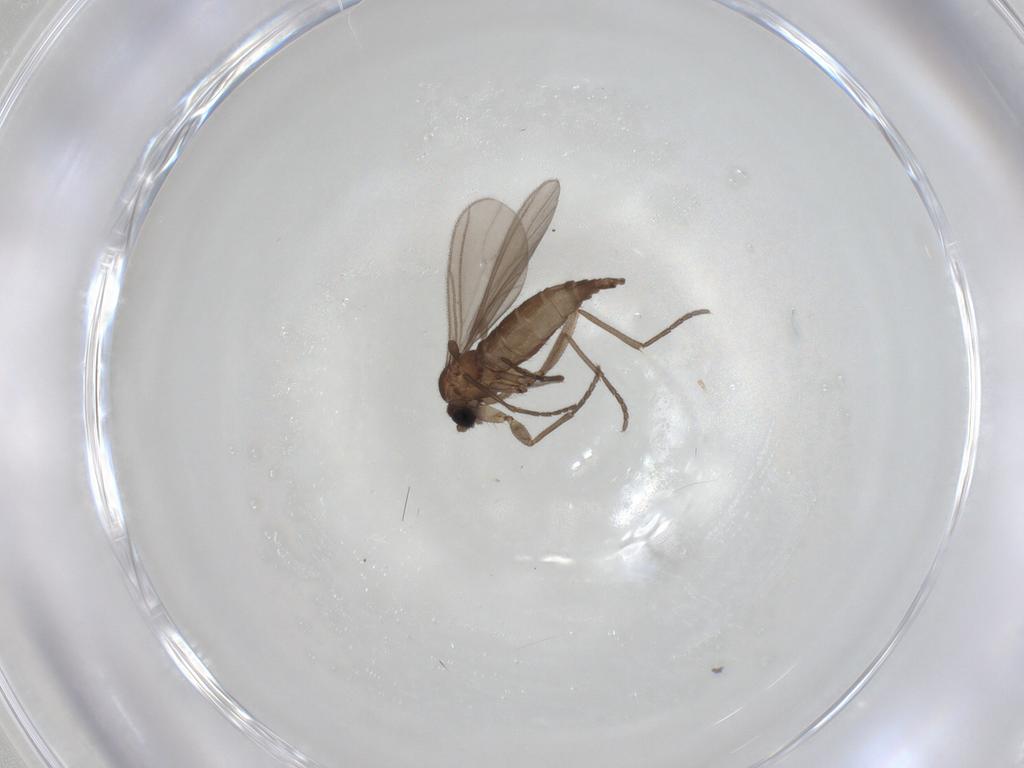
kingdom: Animalia
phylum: Arthropoda
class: Insecta
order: Diptera
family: Sciaridae
